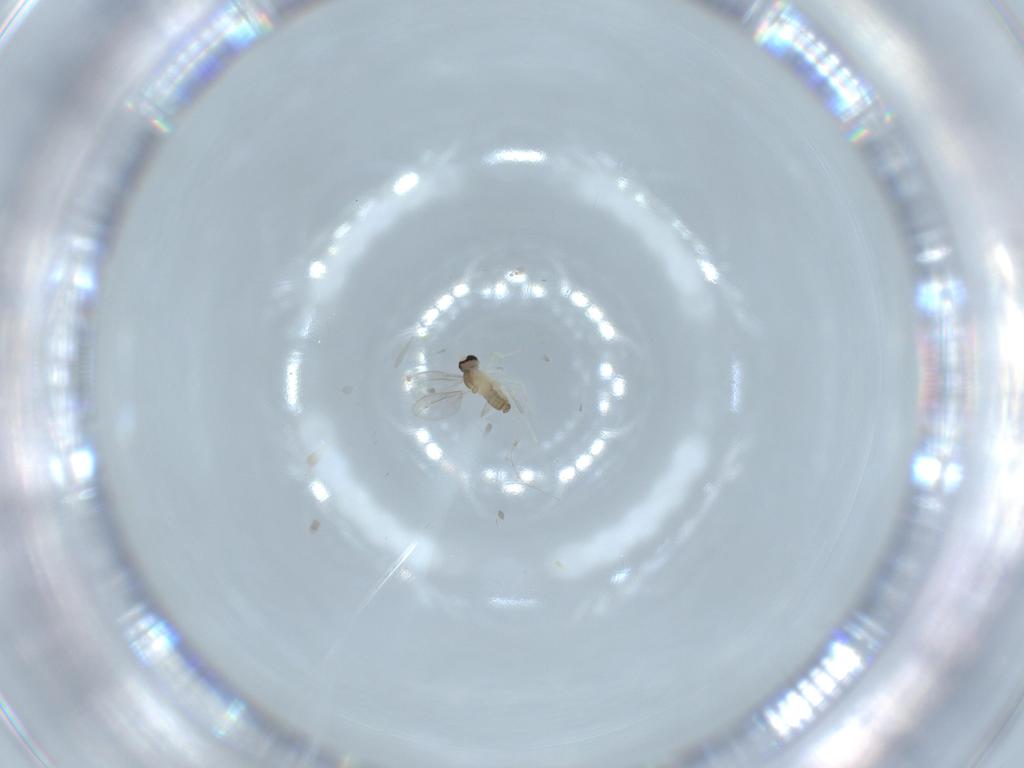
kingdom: Animalia
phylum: Arthropoda
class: Insecta
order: Diptera
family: Cecidomyiidae
